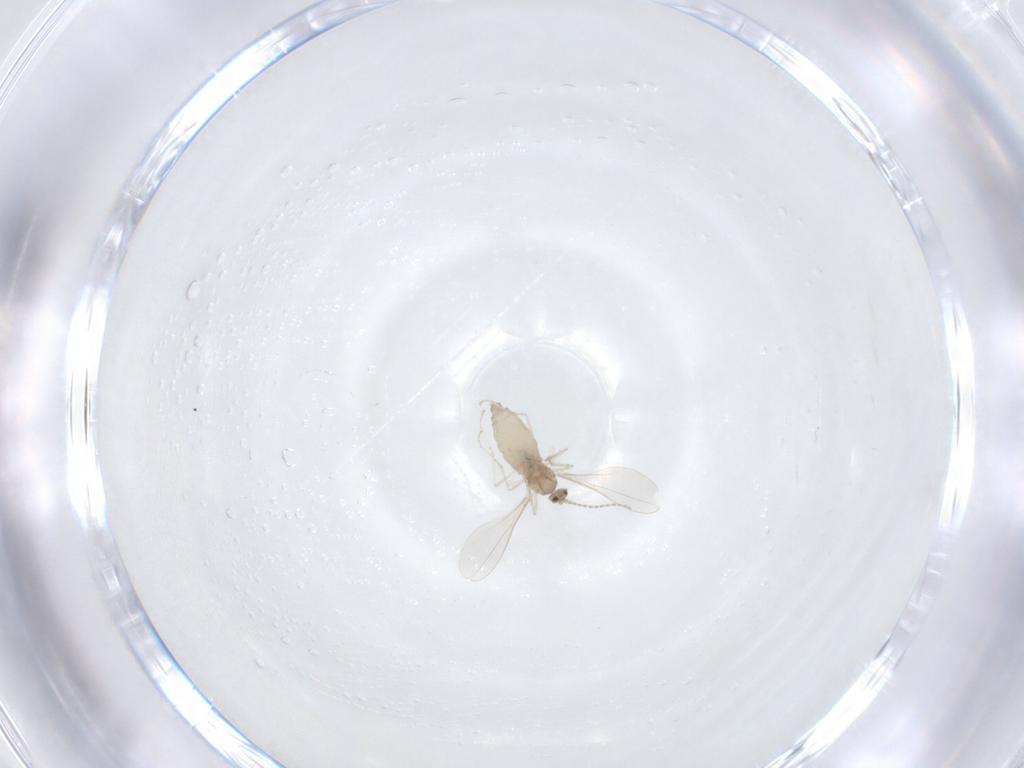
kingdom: Animalia
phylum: Arthropoda
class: Insecta
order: Diptera
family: Cecidomyiidae
